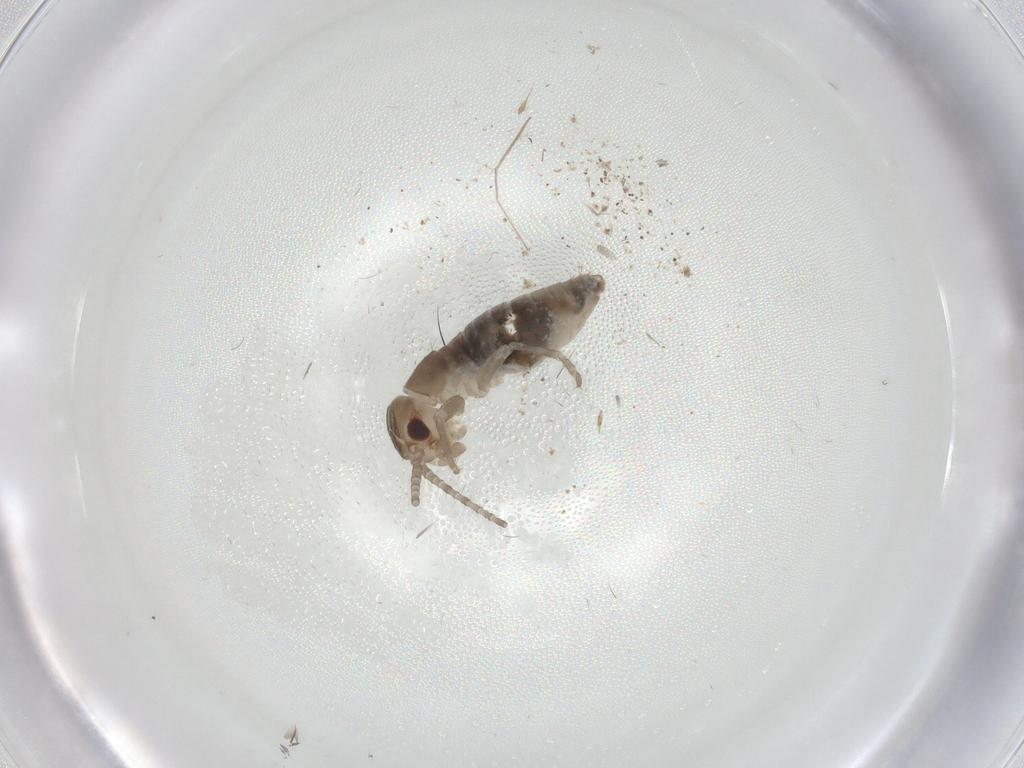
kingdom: Animalia
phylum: Arthropoda
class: Insecta
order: Orthoptera
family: Mogoplistidae
